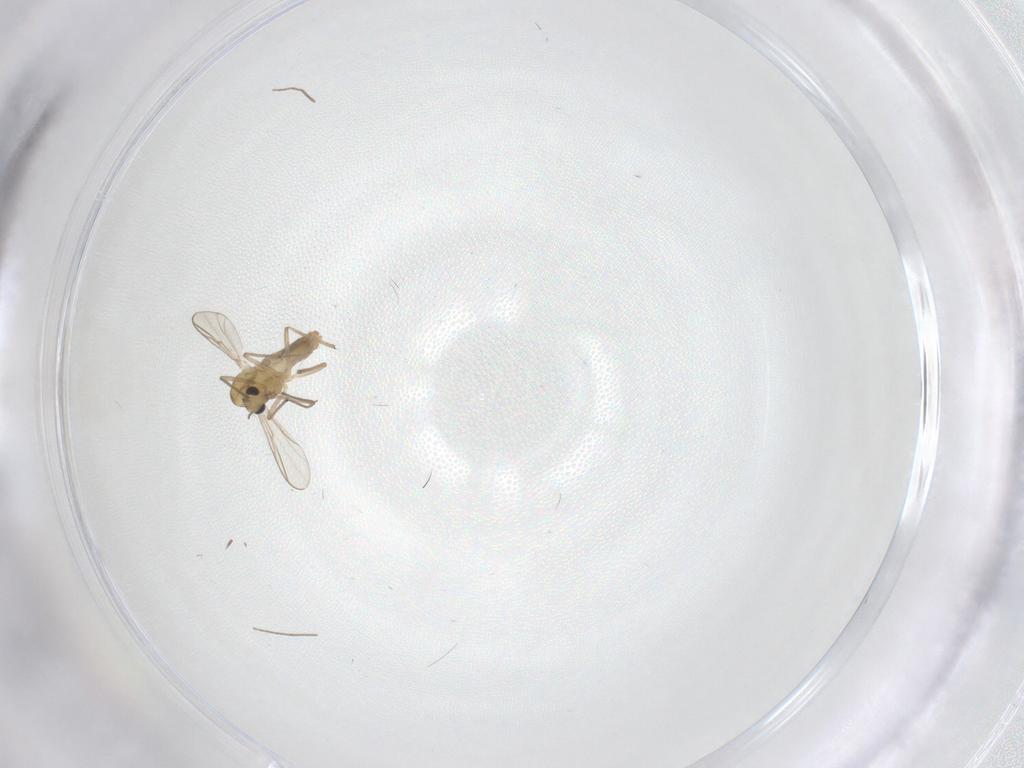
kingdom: Animalia
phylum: Arthropoda
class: Insecta
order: Diptera
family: Chironomidae
